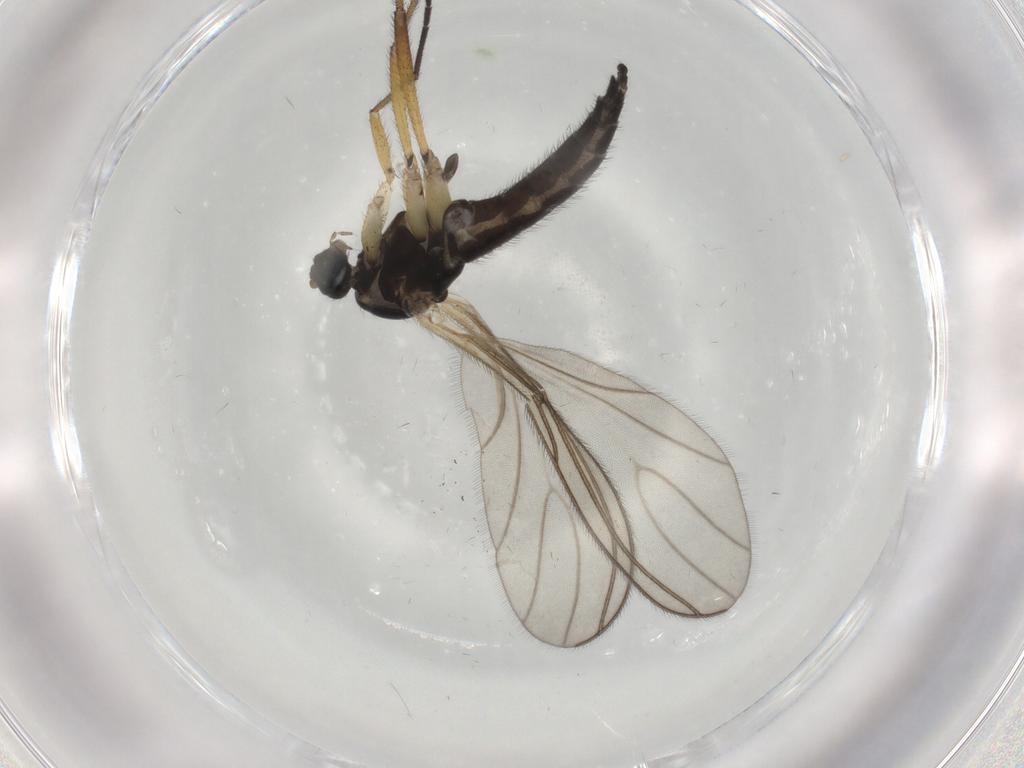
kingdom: Animalia
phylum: Arthropoda
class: Insecta
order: Diptera
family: Sciaridae
